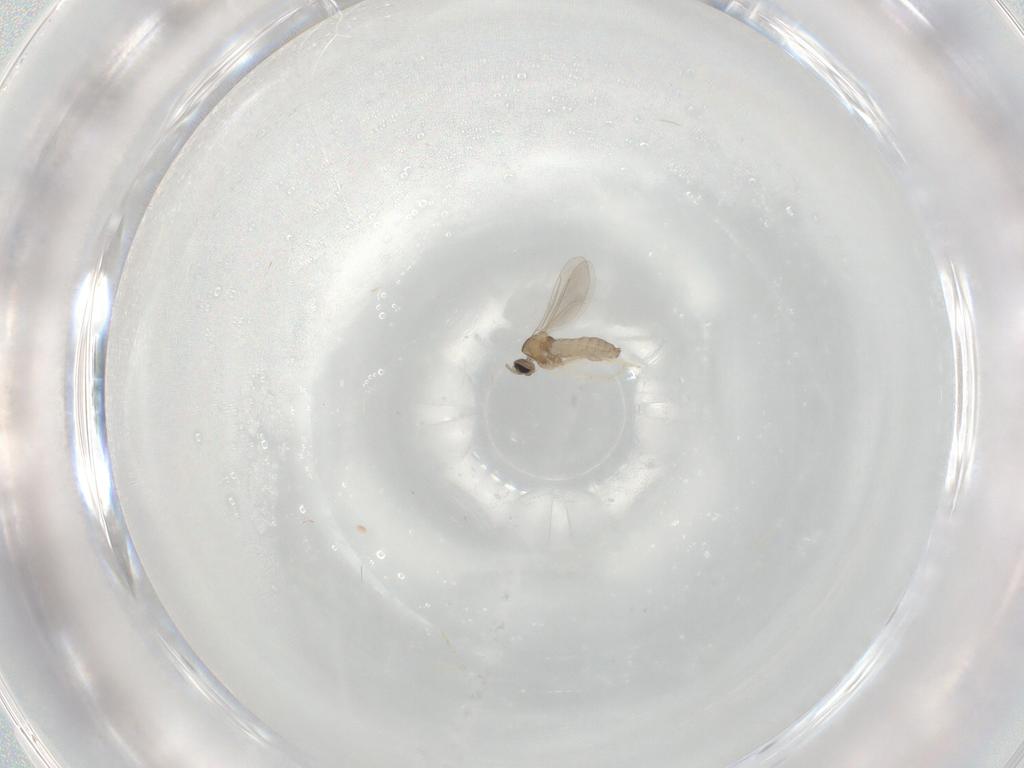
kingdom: Animalia
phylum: Arthropoda
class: Insecta
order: Diptera
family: Cecidomyiidae
